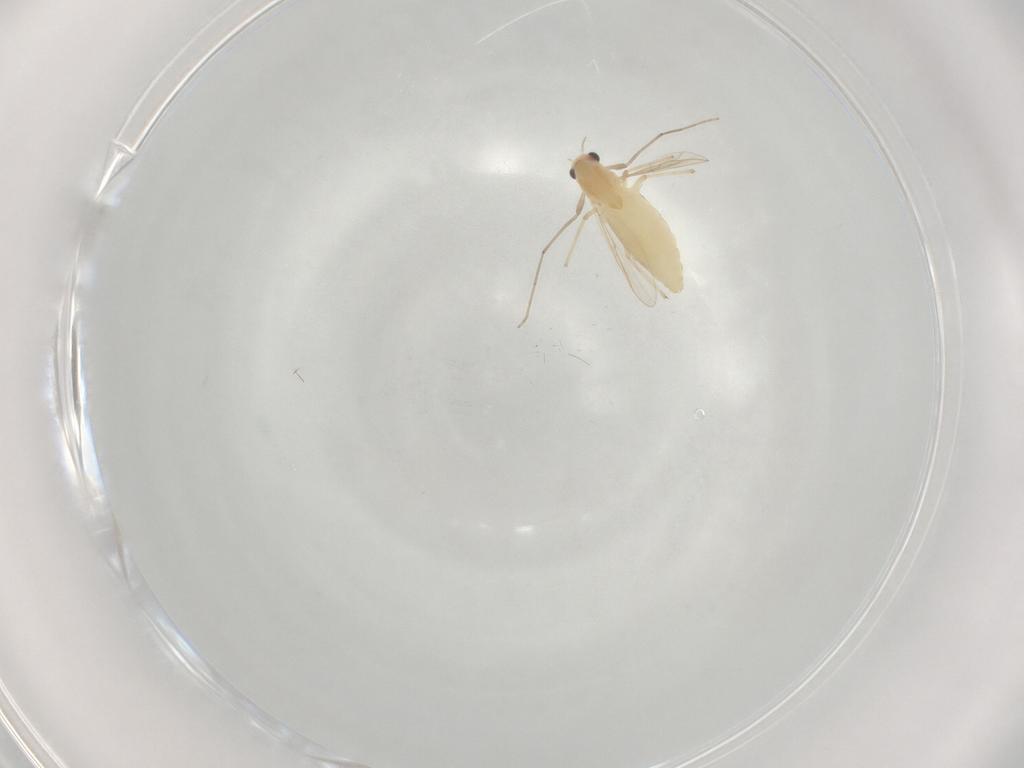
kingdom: Animalia
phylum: Arthropoda
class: Insecta
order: Diptera
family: Chironomidae
